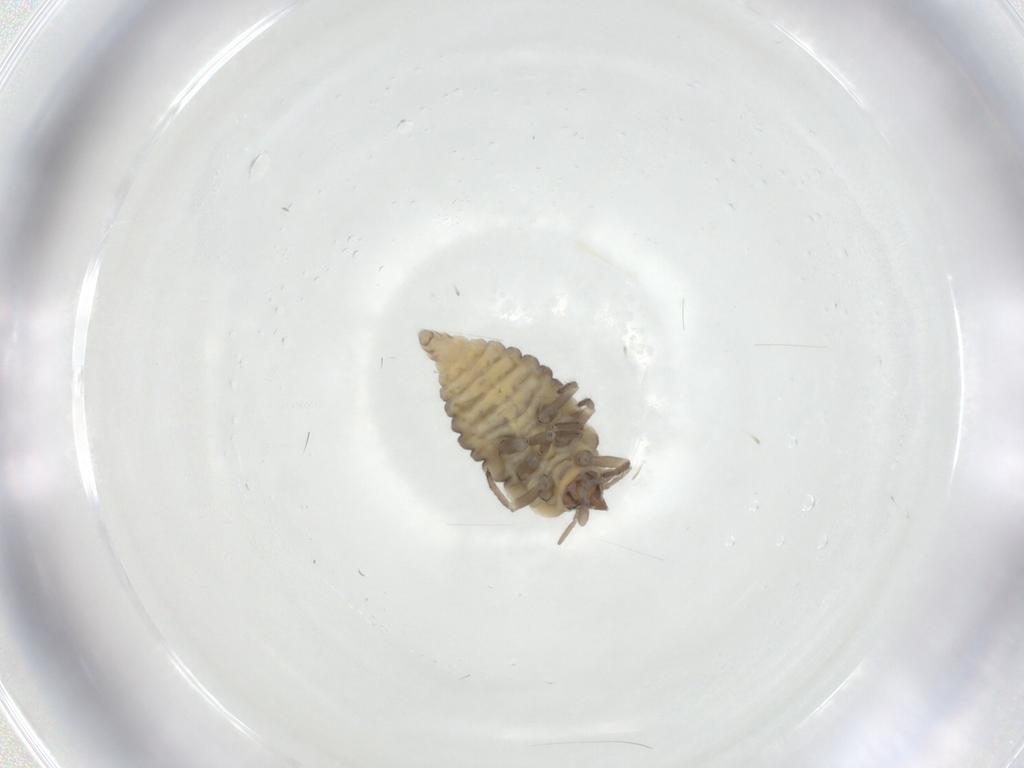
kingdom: Animalia
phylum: Arthropoda
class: Insecta
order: Neuroptera
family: Coniopterygidae
